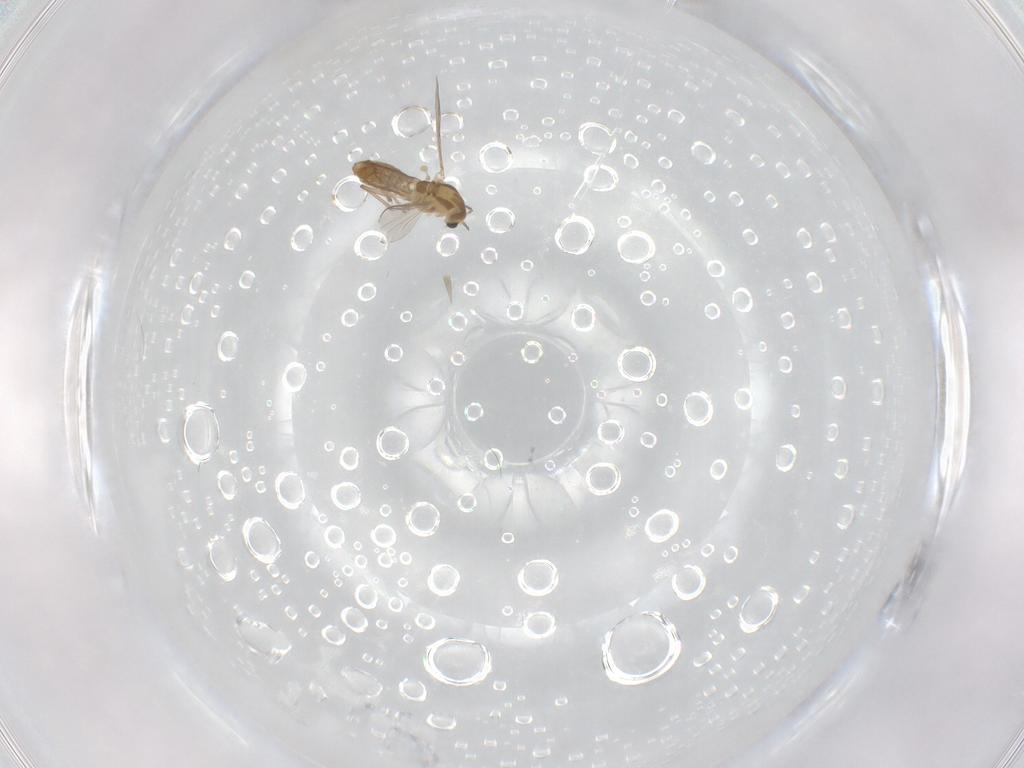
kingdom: Animalia
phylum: Arthropoda
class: Insecta
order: Diptera
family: Chironomidae
